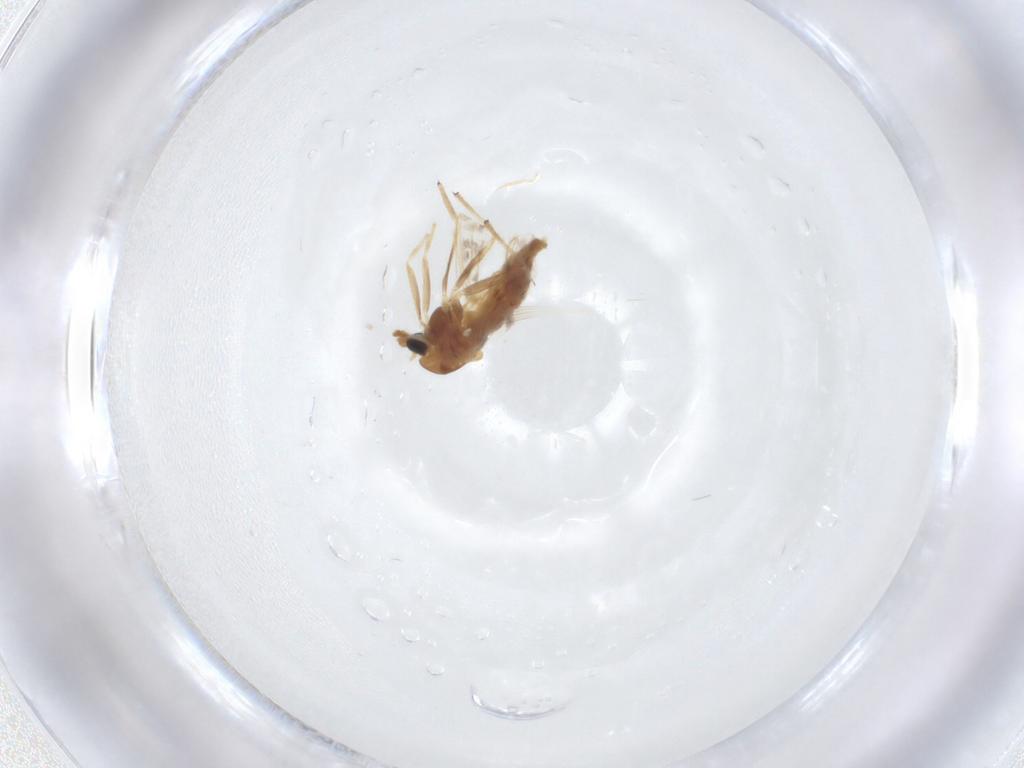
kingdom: Animalia
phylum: Arthropoda
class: Insecta
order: Diptera
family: Chironomidae
